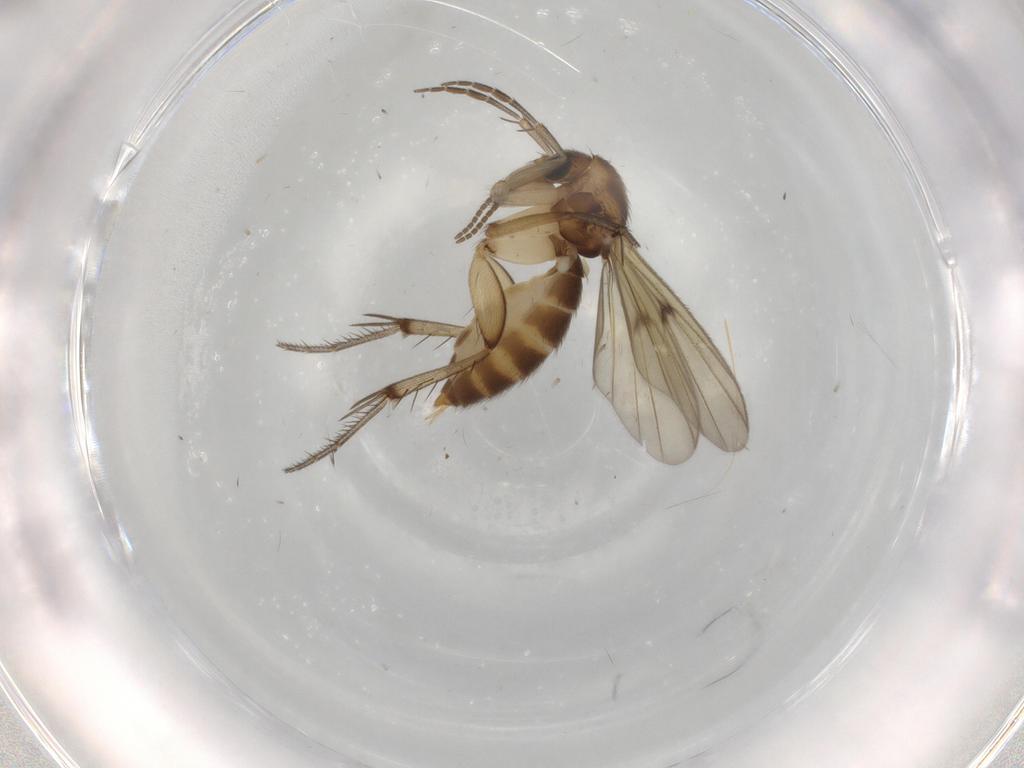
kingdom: Animalia
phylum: Arthropoda
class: Insecta
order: Diptera
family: Mycetophilidae
